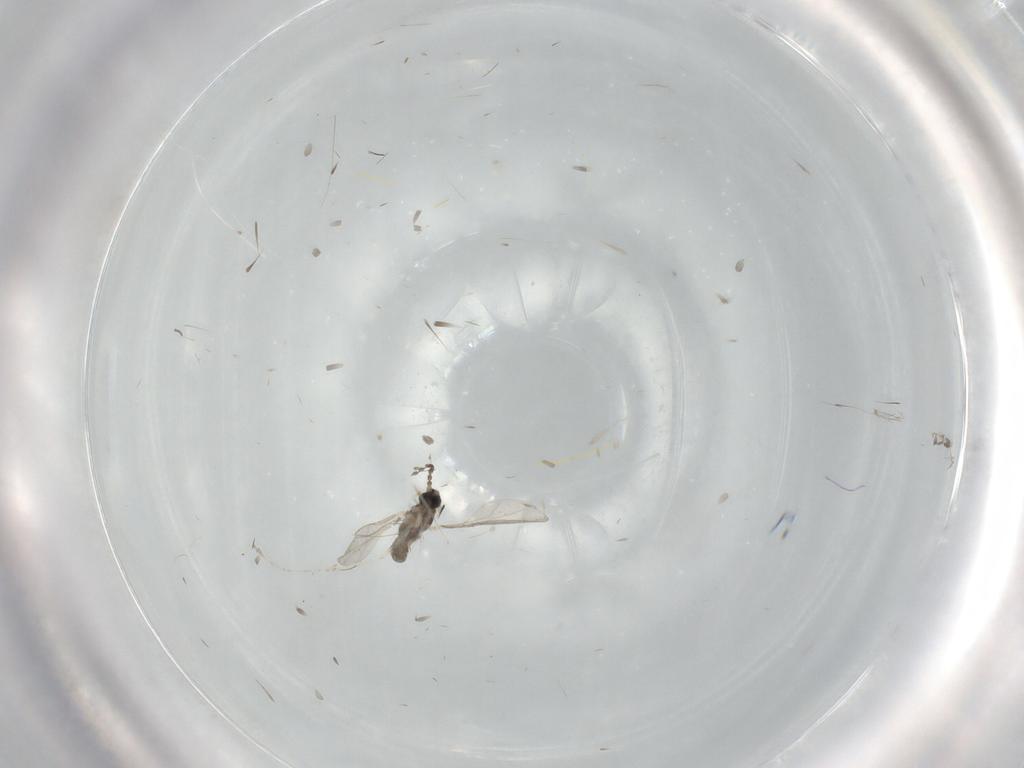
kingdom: Animalia
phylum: Arthropoda
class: Insecta
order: Diptera
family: Phoridae
